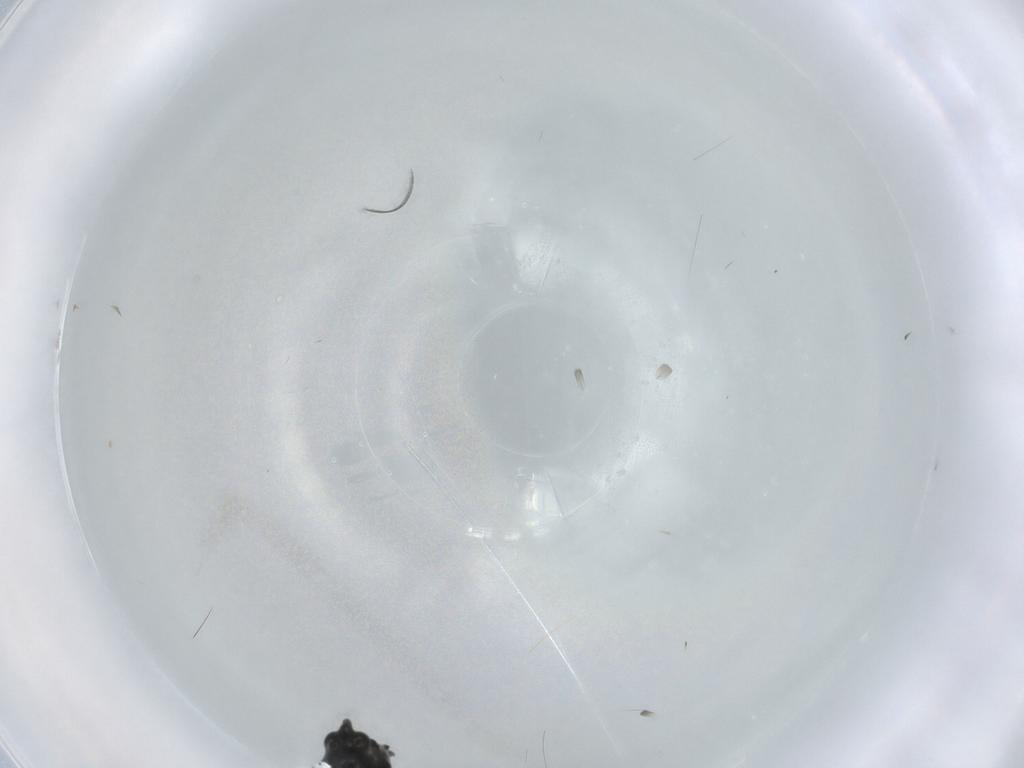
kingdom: Animalia
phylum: Arthropoda
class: Insecta
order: Diptera
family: Chironomidae
